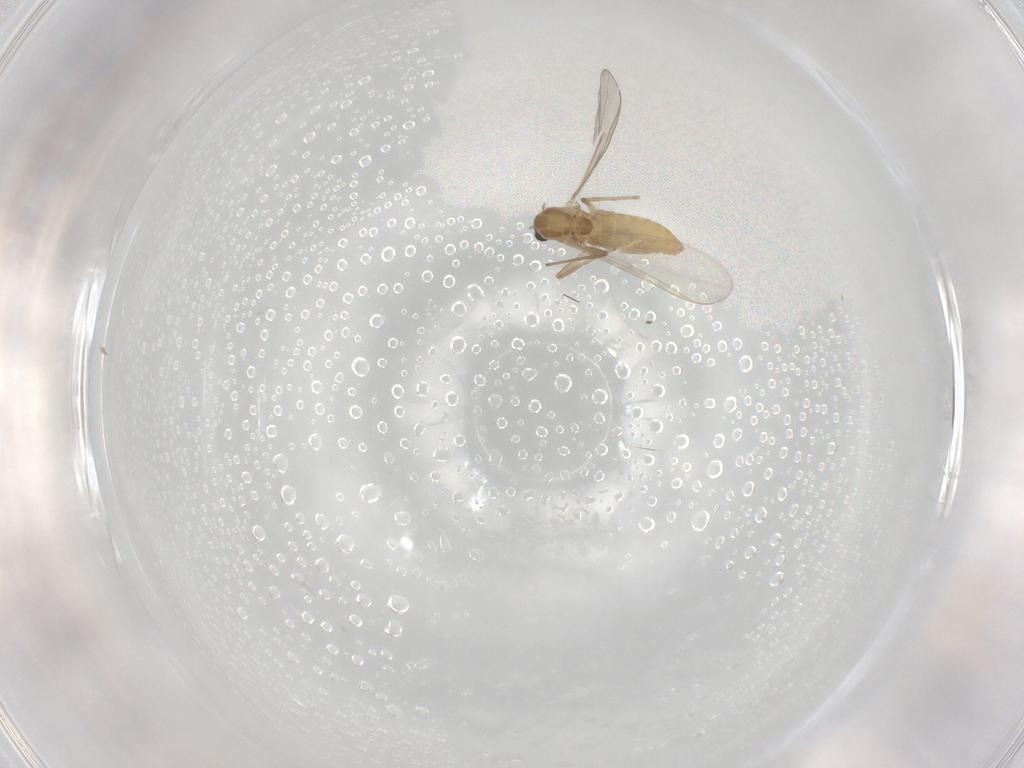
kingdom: Animalia
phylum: Arthropoda
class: Insecta
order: Diptera
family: Chironomidae
